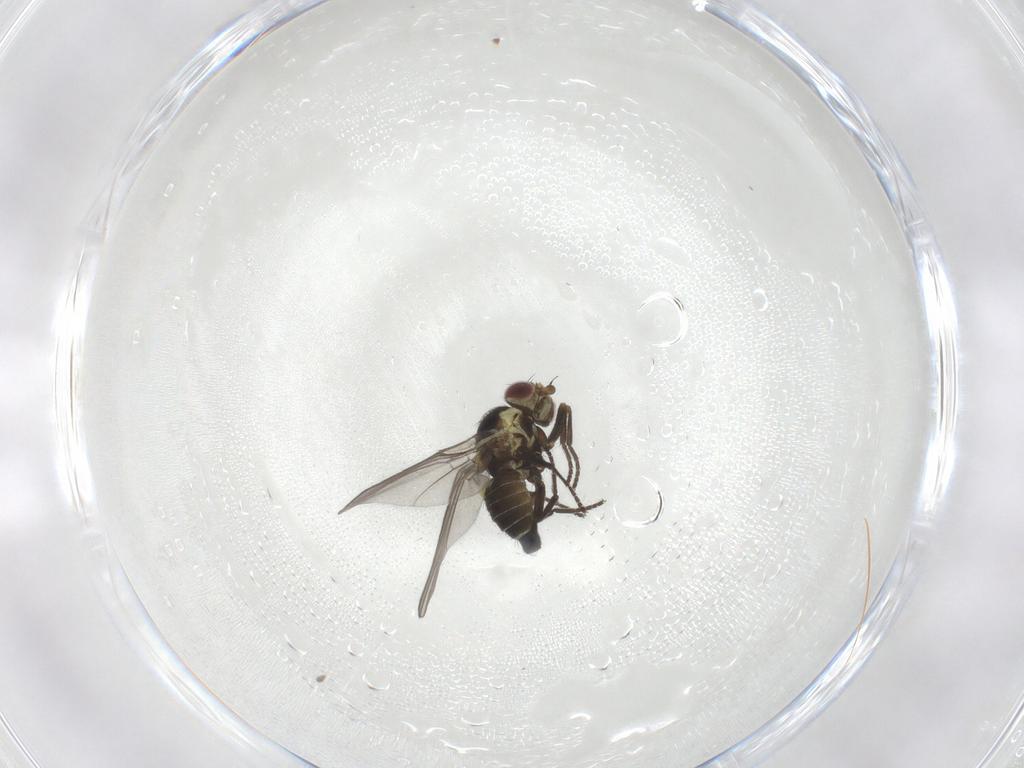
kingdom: Animalia
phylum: Arthropoda
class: Insecta
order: Diptera
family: Agromyzidae
